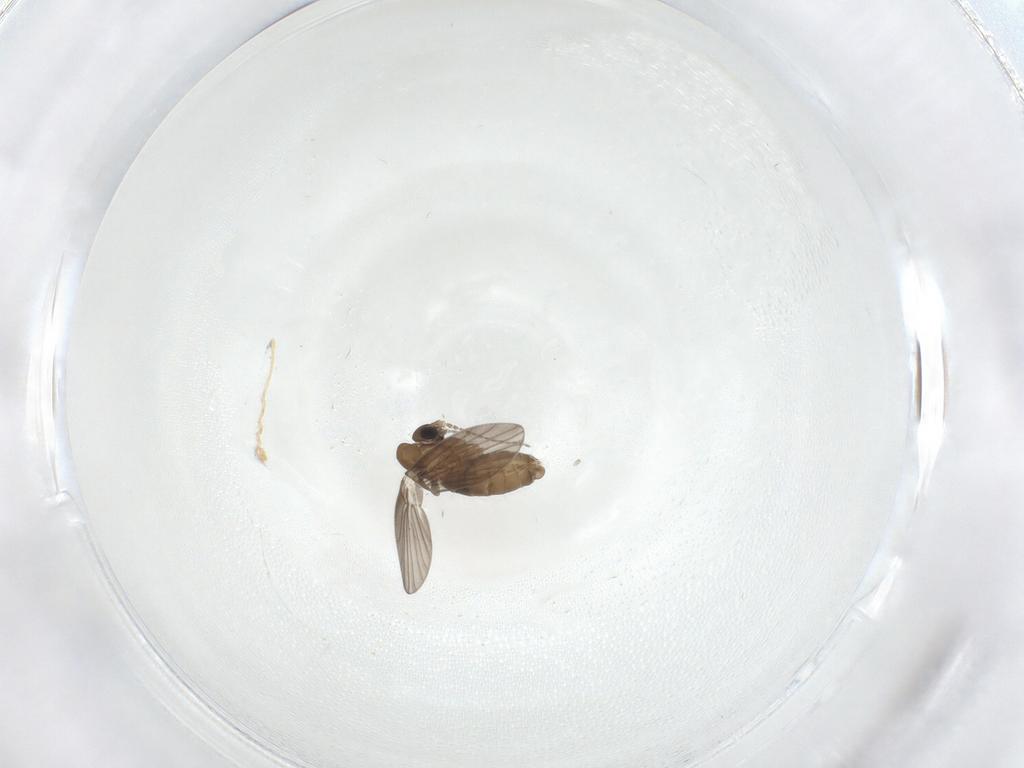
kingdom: Animalia
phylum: Arthropoda
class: Insecta
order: Diptera
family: Psychodidae
